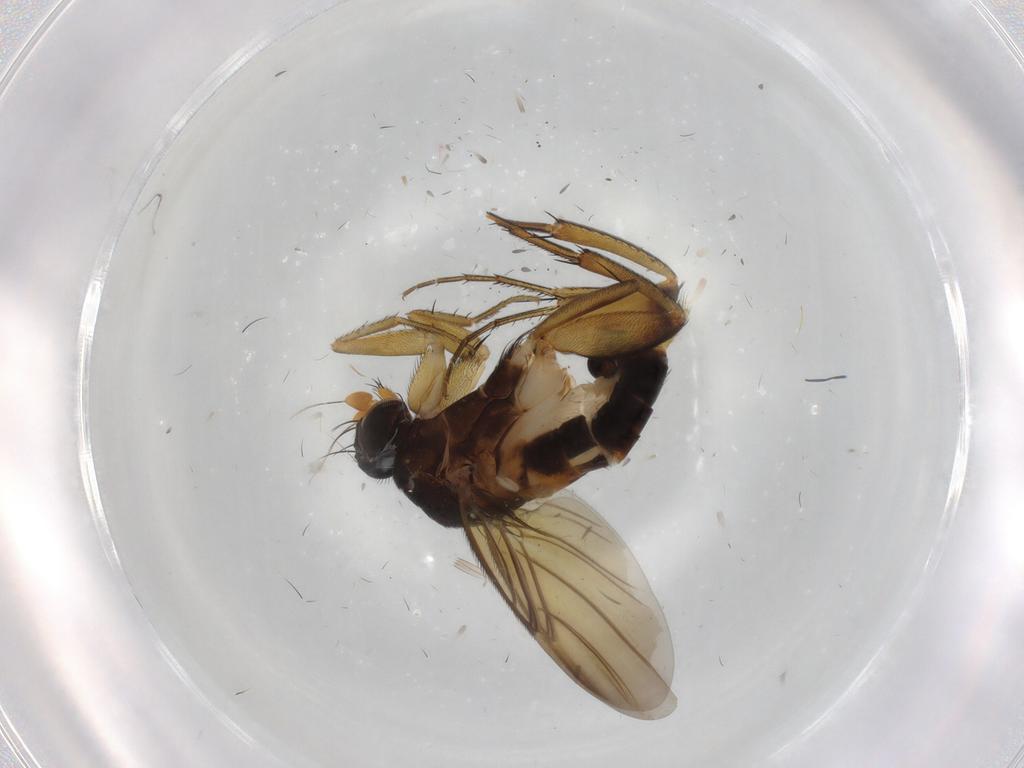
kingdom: Animalia
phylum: Arthropoda
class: Insecta
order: Diptera
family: Phoridae
